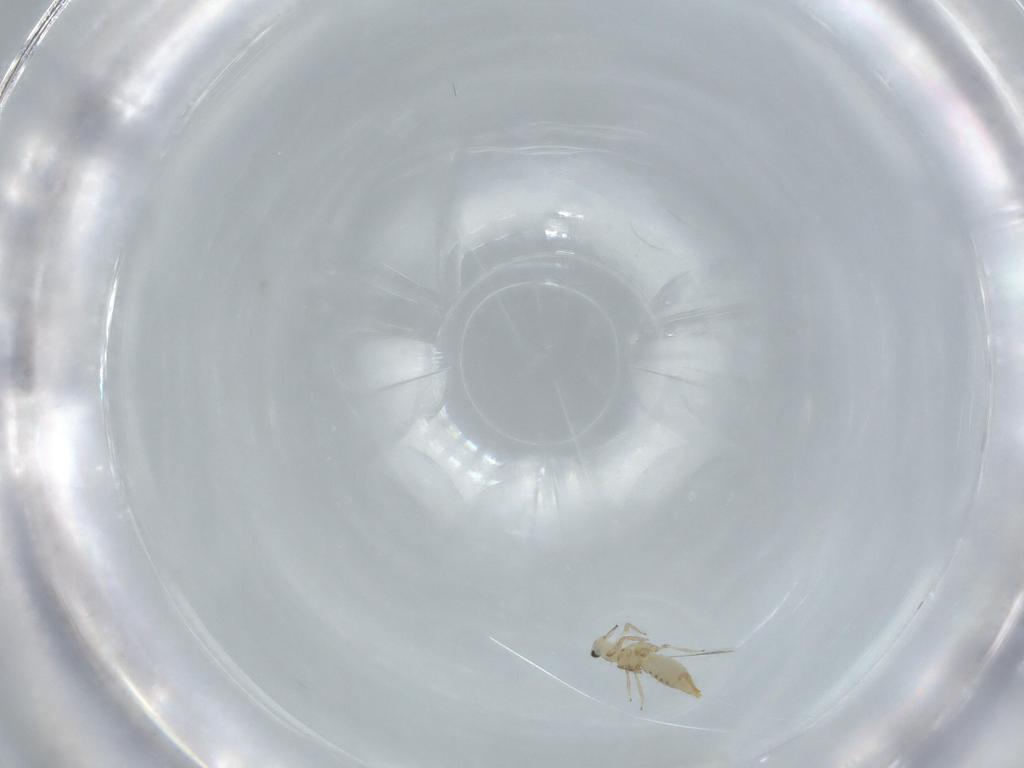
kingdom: Animalia
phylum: Arthropoda
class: Insecta
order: Thysanoptera
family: Thripidae
